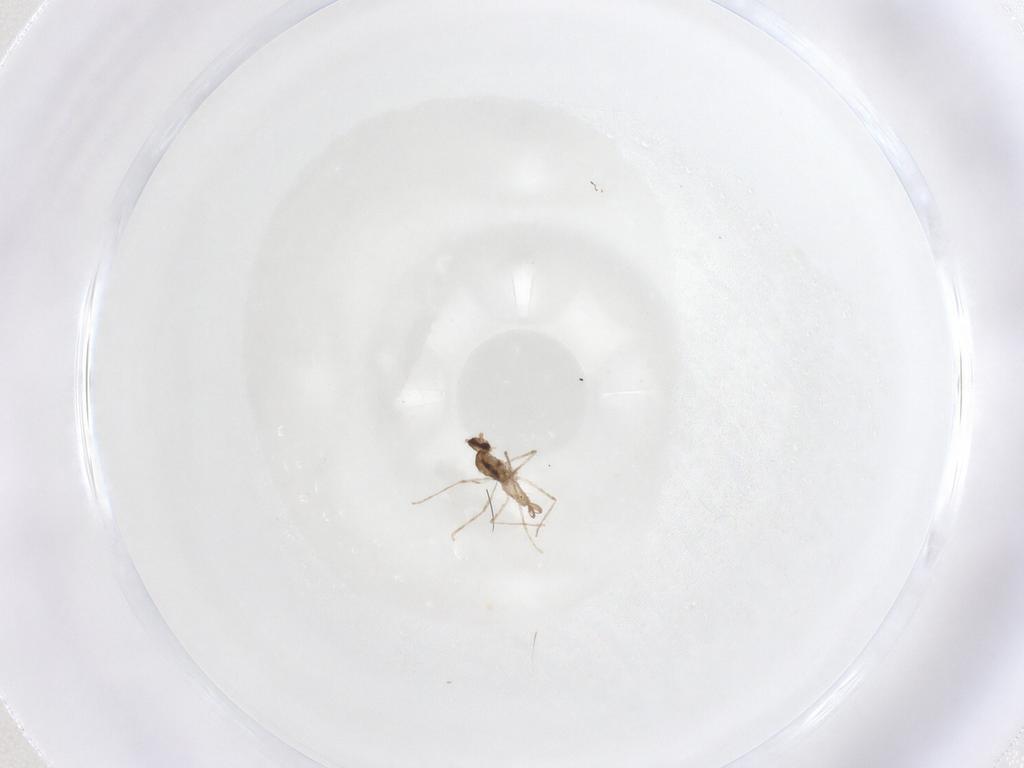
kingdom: Animalia
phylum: Arthropoda
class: Insecta
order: Diptera
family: Cecidomyiidae
